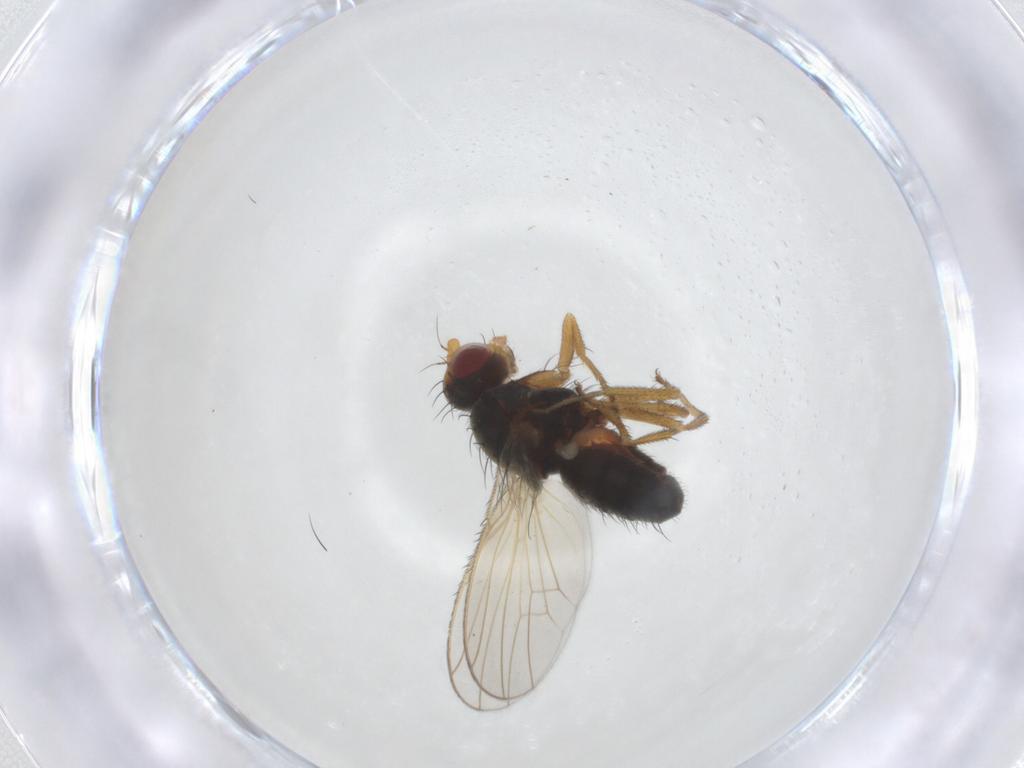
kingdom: Animalia
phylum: Arthropoda
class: Insecta
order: Diptera
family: Heleomyzidae
